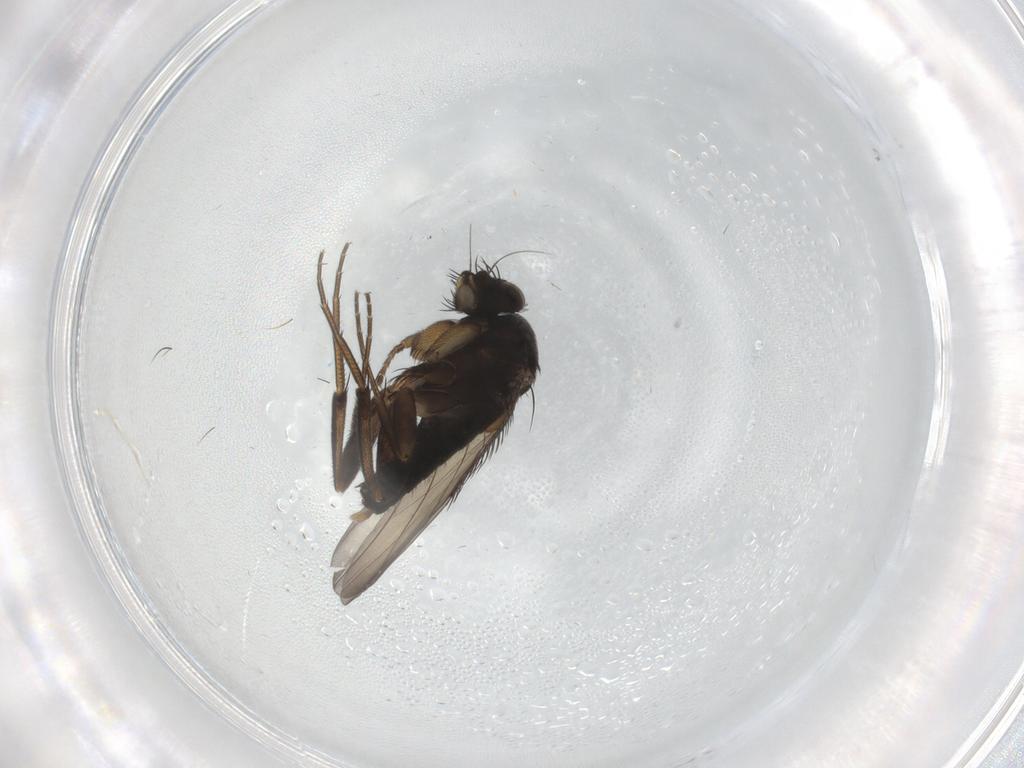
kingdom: Animalia
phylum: Arthropoda
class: Insecta
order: Diptera
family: Phoridae
